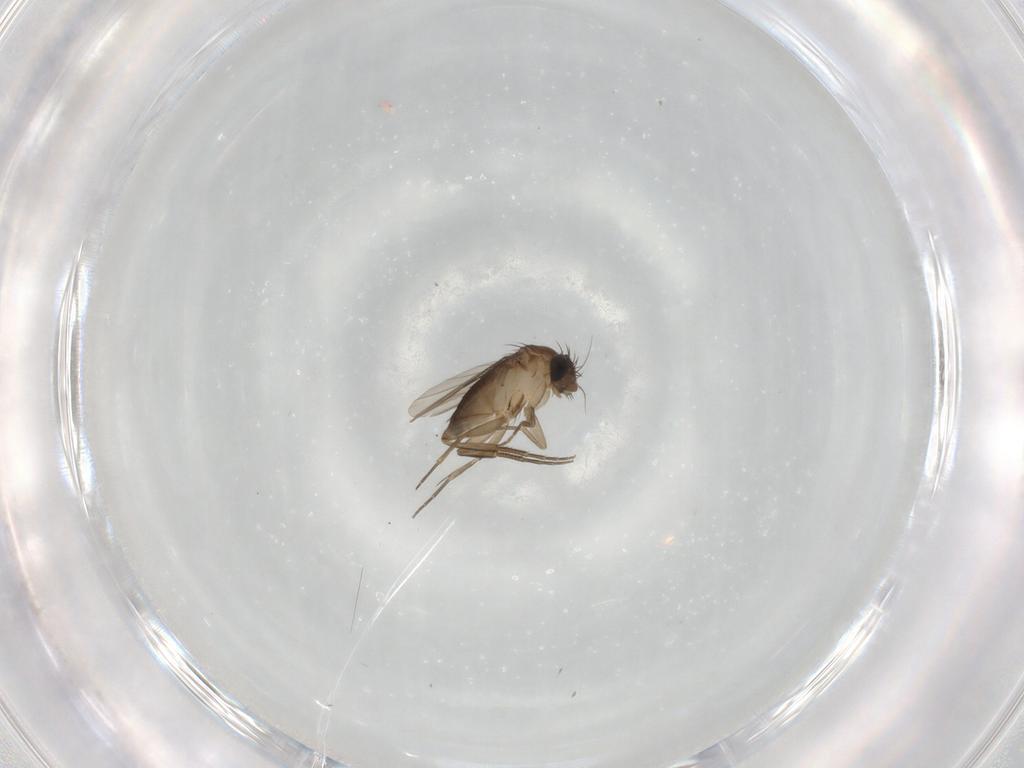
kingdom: Animalia
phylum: Arthropoda
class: Insecta
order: Diptera
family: Phoridae
